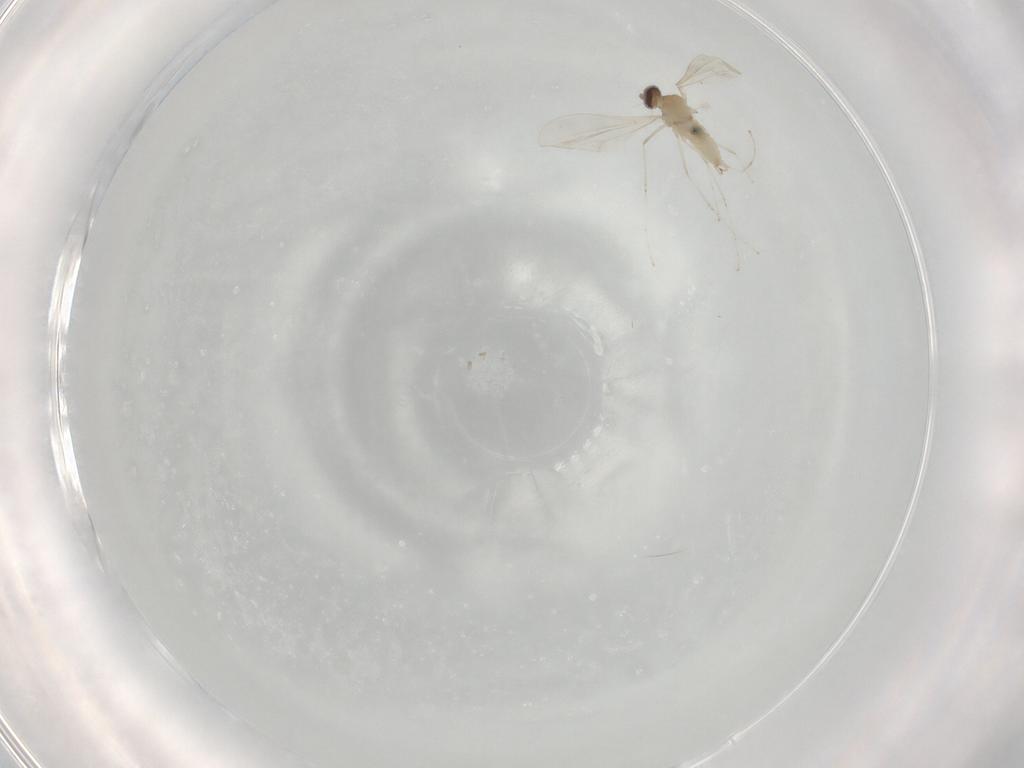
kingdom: Animalia
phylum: Arthropoda
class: Insecta
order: Diptera
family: Cecidomyiidae
